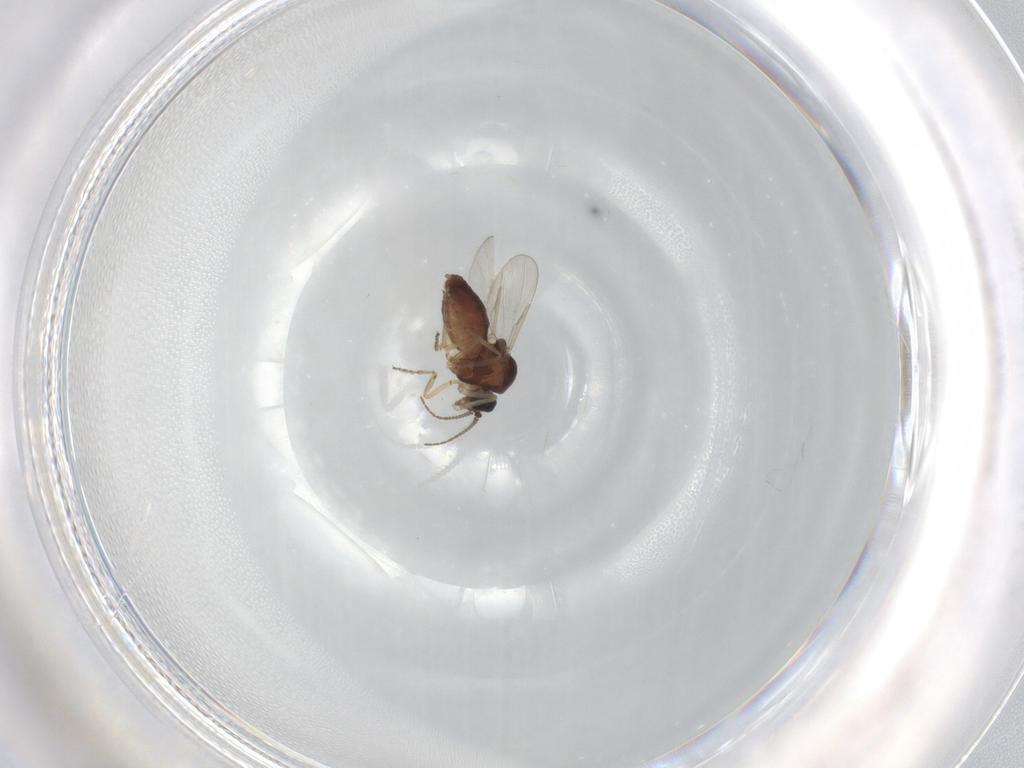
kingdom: Animalia
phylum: Arthropoda
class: Insecta
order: Diptera
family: Ceratopogonidae
